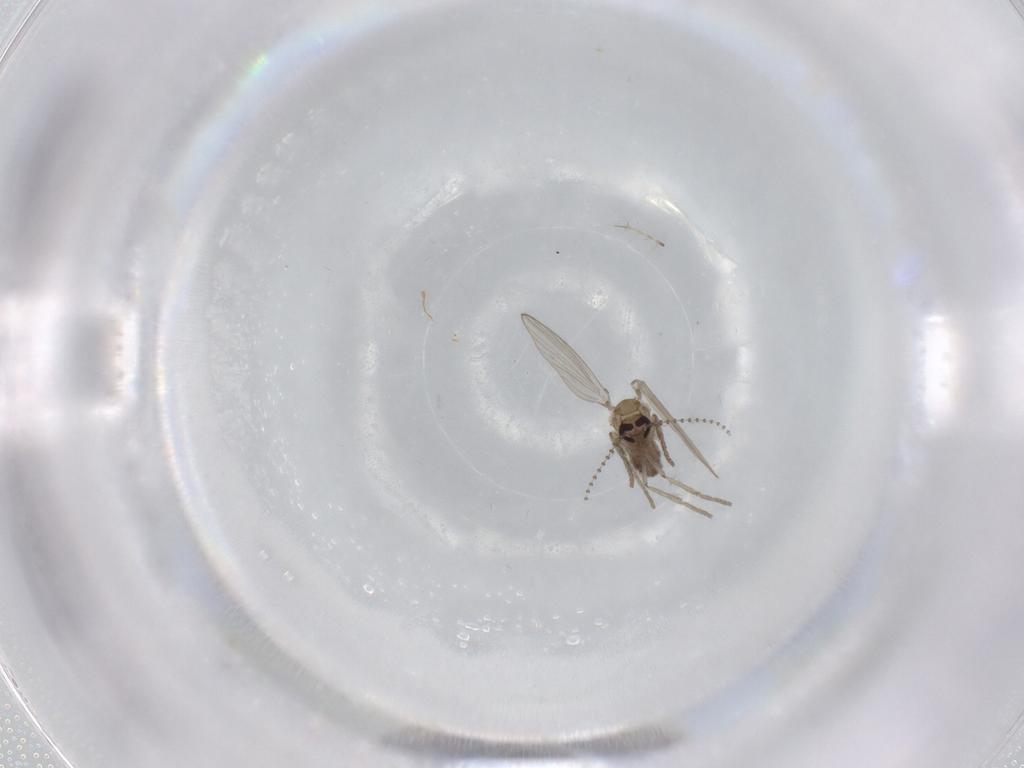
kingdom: Animalia
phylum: Arthropoda
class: Insecta
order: Diptera
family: Psychodidae
